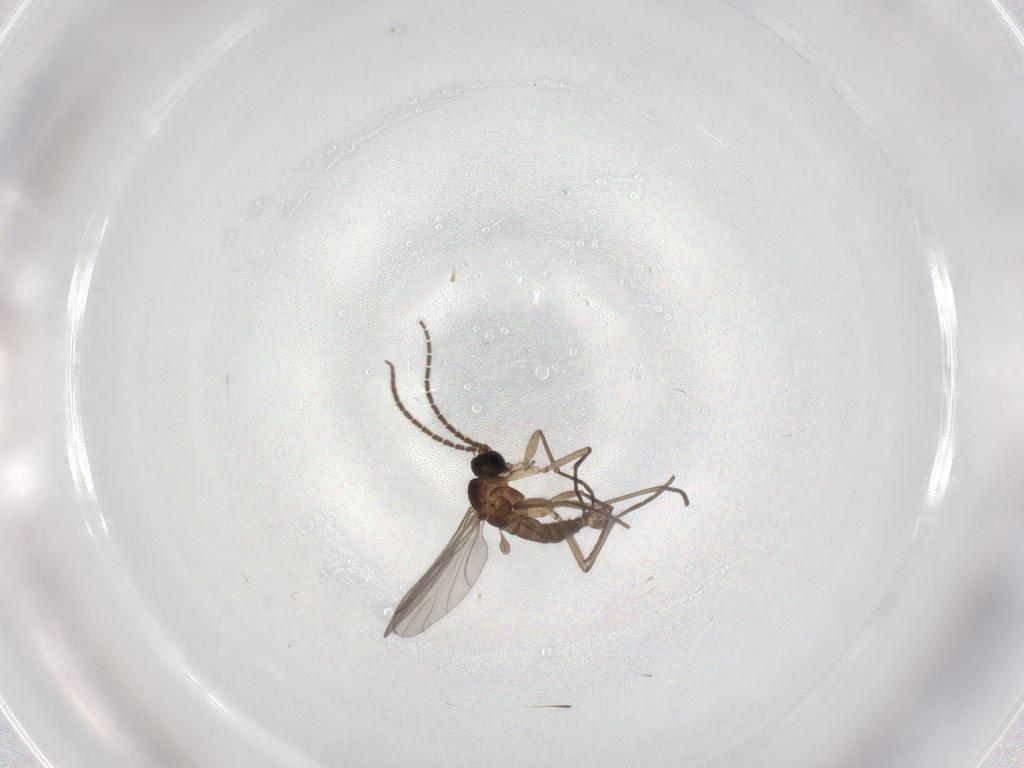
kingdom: Animalia
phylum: Arthropoda
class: Insecta
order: Diptera
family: Sciaridae
